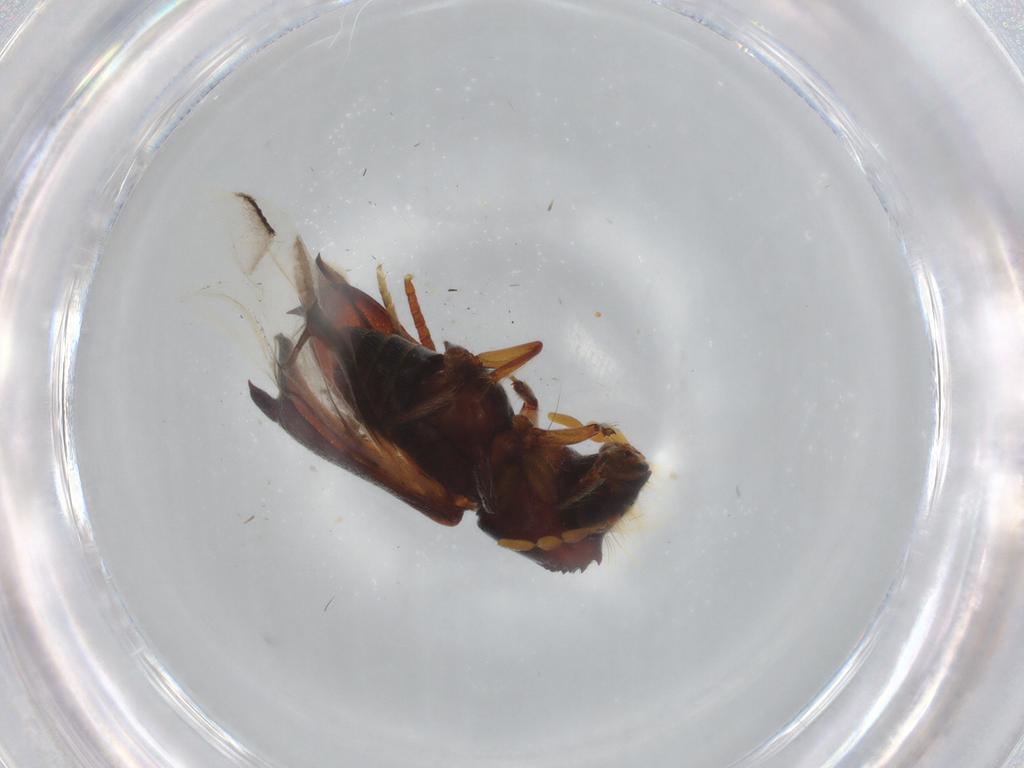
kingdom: Animalia
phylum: Arthropoda
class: Insecta
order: Coleoptera
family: Bostrichidae
